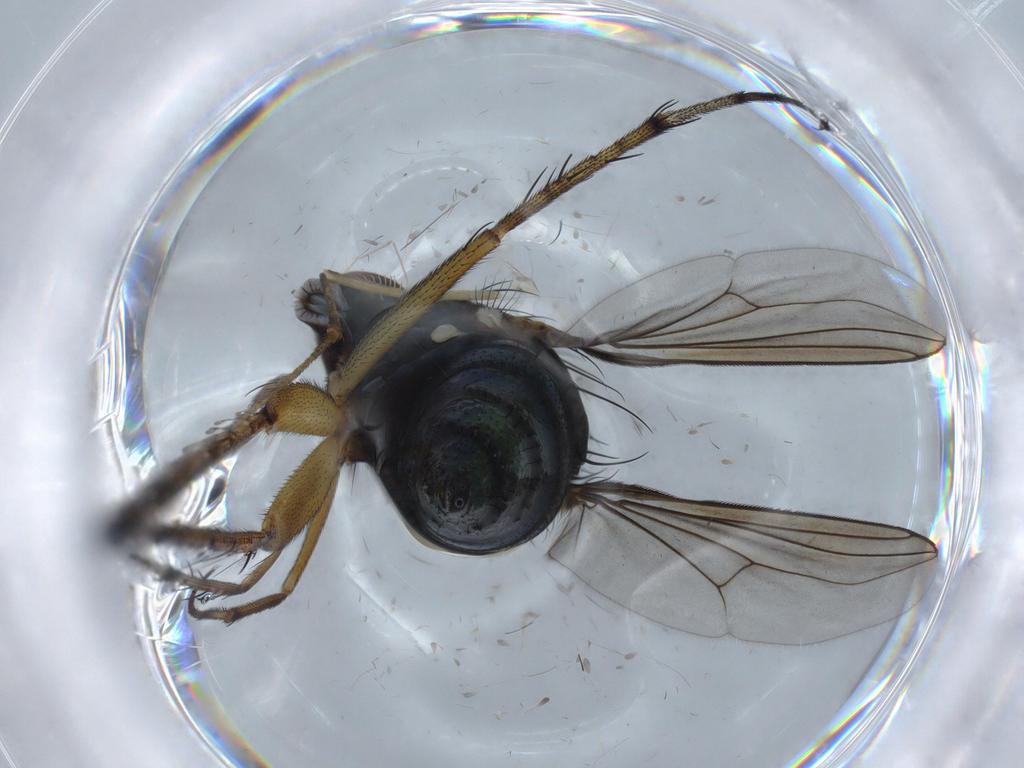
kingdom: Animalia
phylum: Arthropoda
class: Insecta
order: Diptera
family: Dolichopodidae
